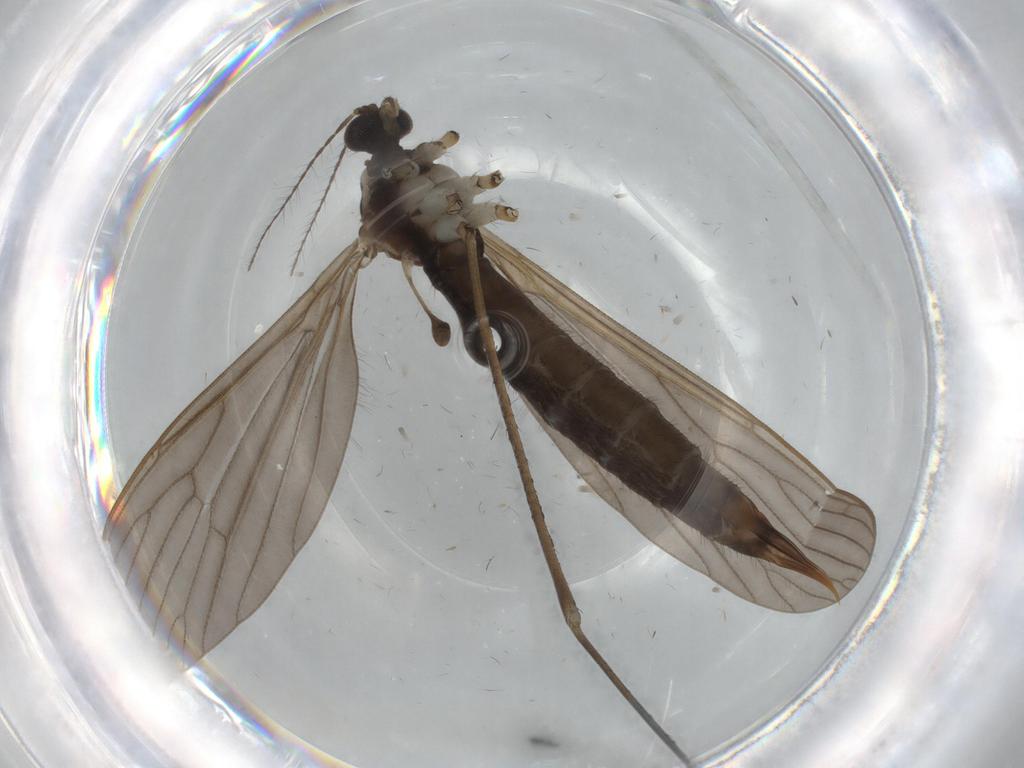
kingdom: Animalia
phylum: Arthropoda
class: Insecta
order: Diptera
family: Limoniidae
